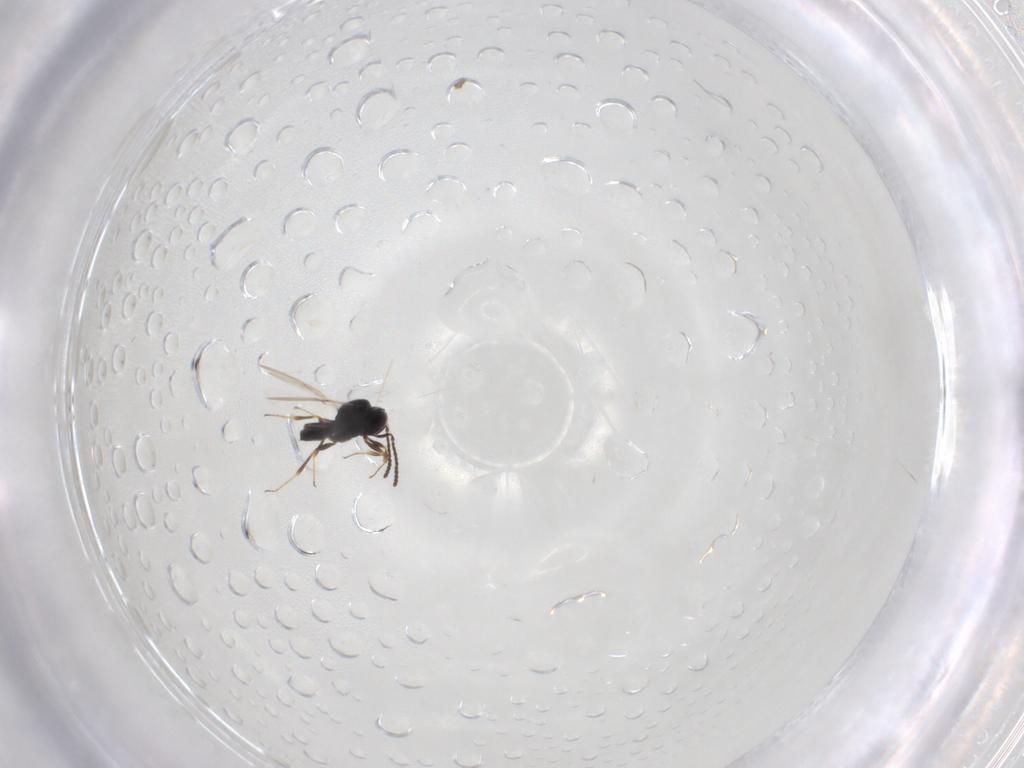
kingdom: Animalia
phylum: Arthropoda
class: Insecta
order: Hymenoptera
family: Scelionidae
